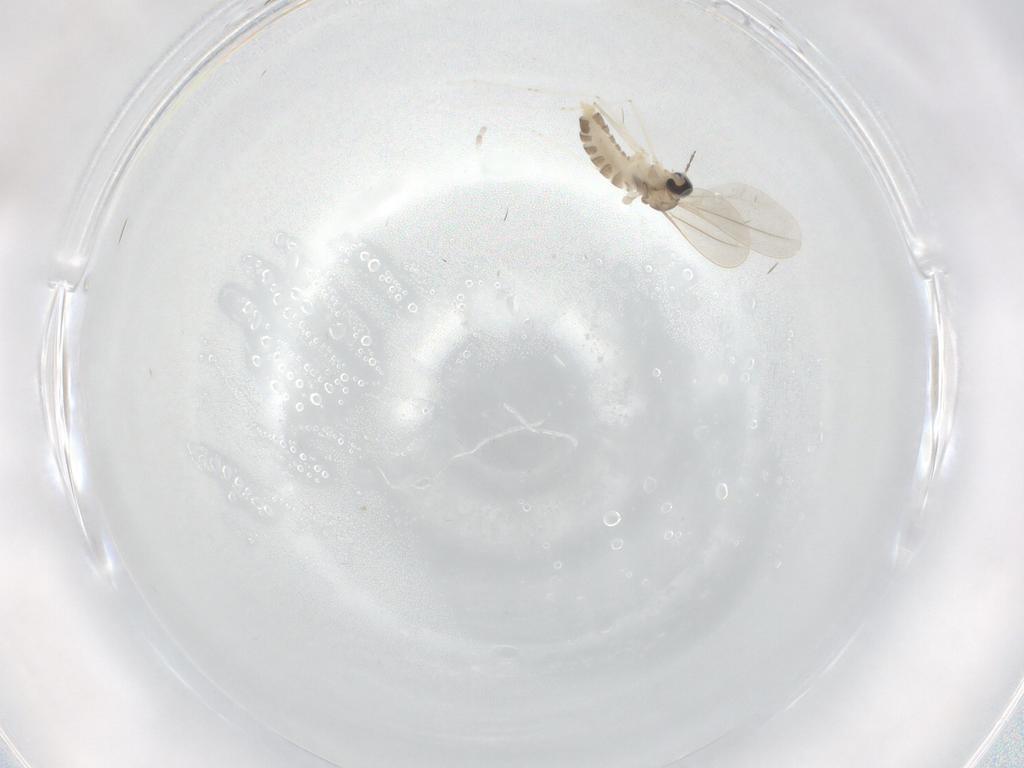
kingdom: Animalia
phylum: Arthropoda
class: Insecta
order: Diptera
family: Cecidomyiidae
